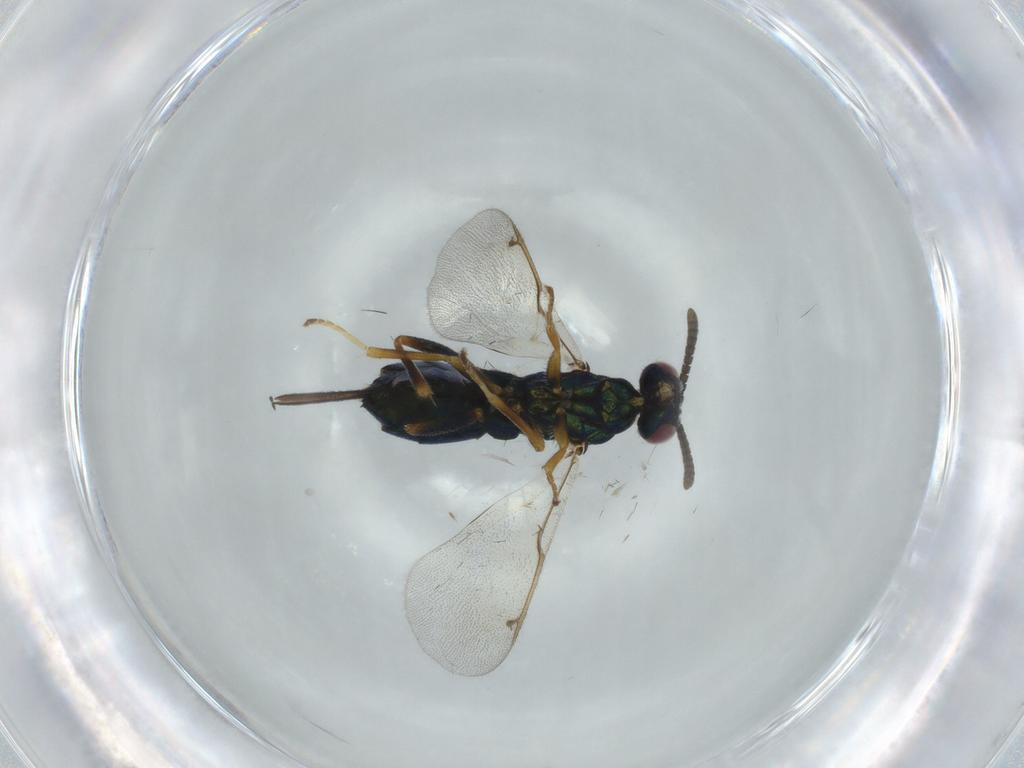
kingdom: Animalia
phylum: Arthropoda
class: Insecta
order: Hymenoptera
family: Torymidae
